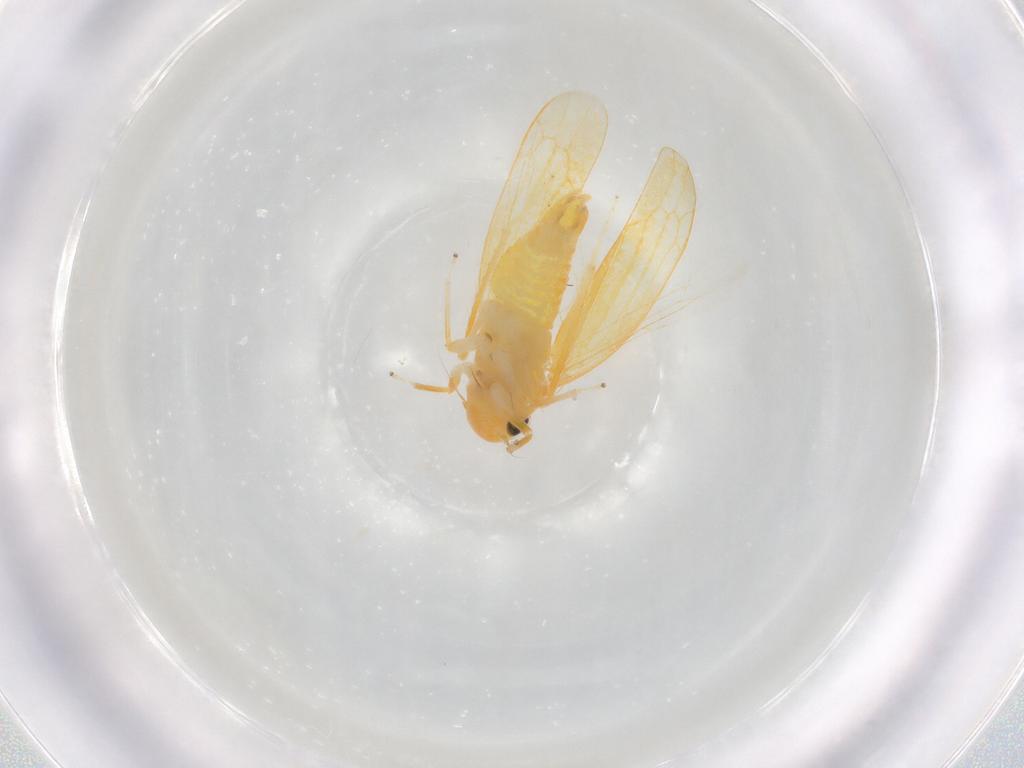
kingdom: Animalia
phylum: Arthropoda
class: Insecta
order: Hemiptera
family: Cicadellidae
